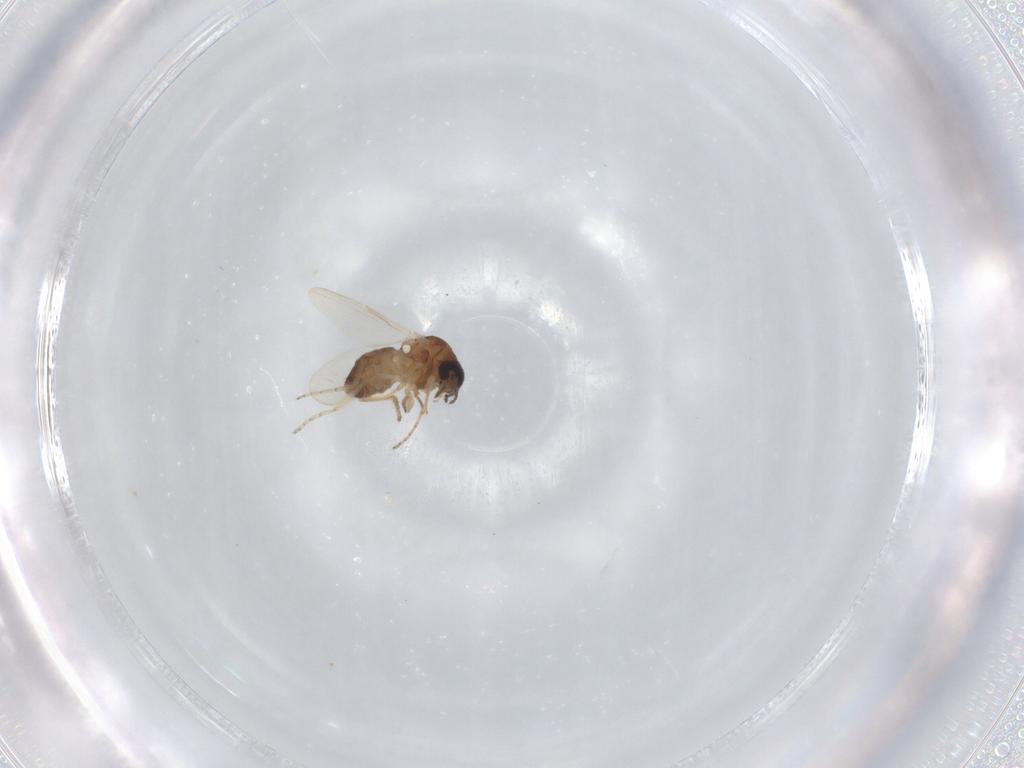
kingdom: Animalia
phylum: Arthropoda
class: Insecta
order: Diptera
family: Ceratopogonidae
